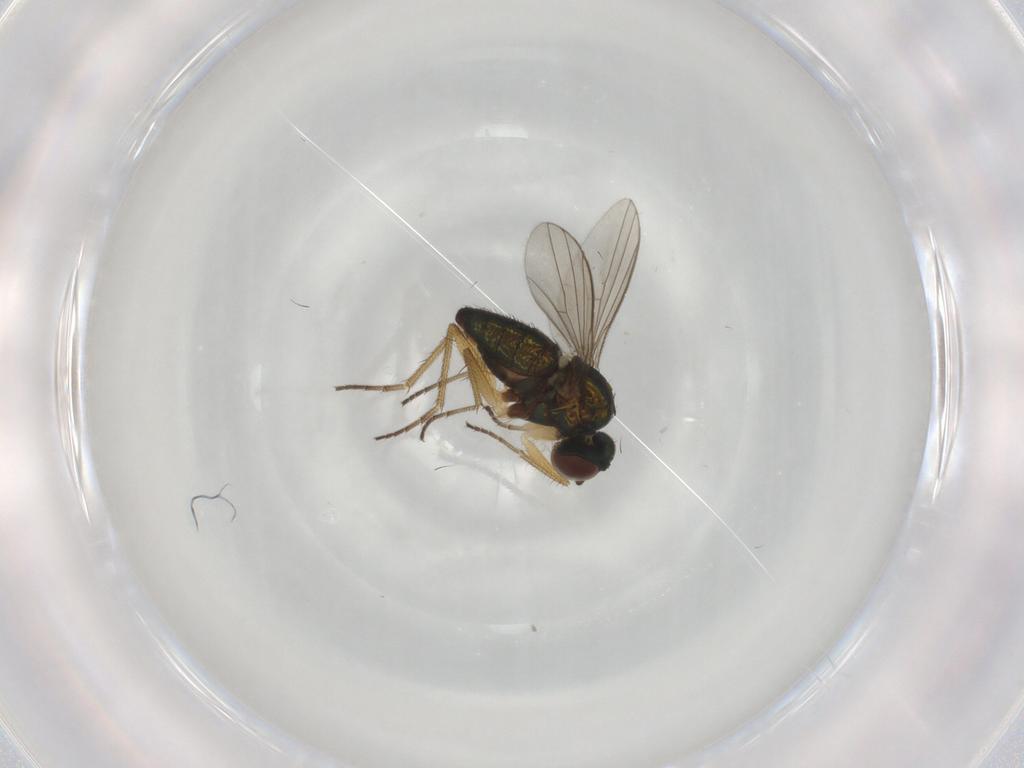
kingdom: Animalia
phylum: Arthropoda
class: Insecta
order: Diptera
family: Dolichopodidae
